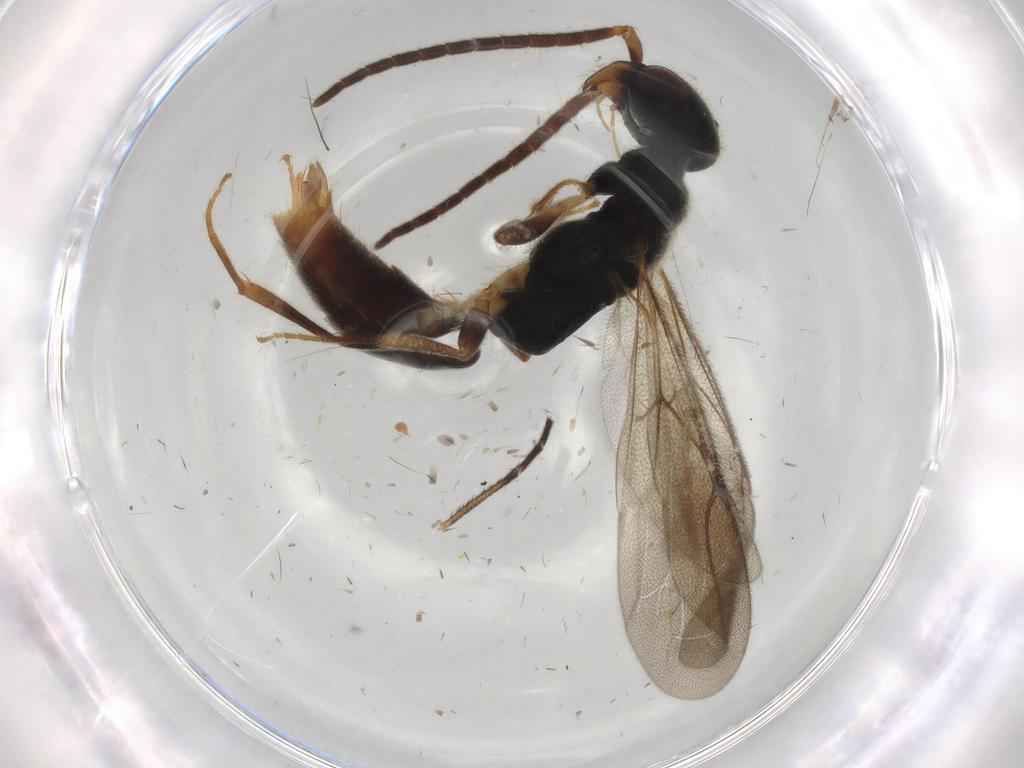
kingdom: Animalia
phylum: Arthropoda
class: Insecta
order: Hymenoptera
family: Bethylidae
